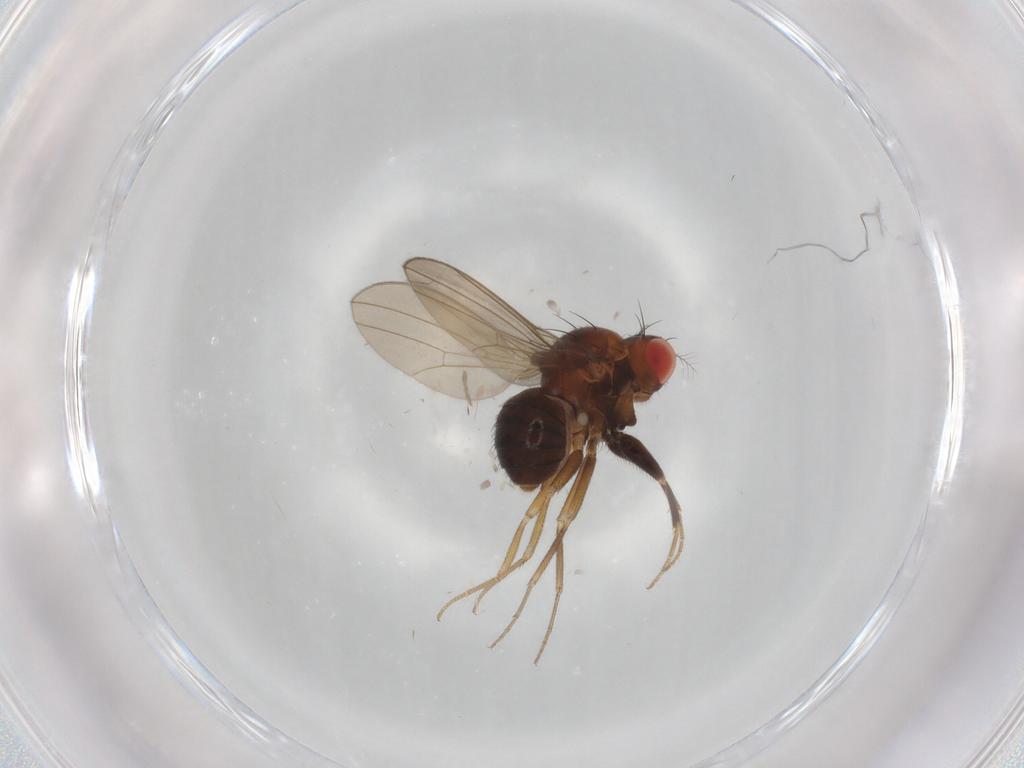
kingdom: Animalia
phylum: Arthropoda
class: Insecta
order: Diptera
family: Drosophilidae
